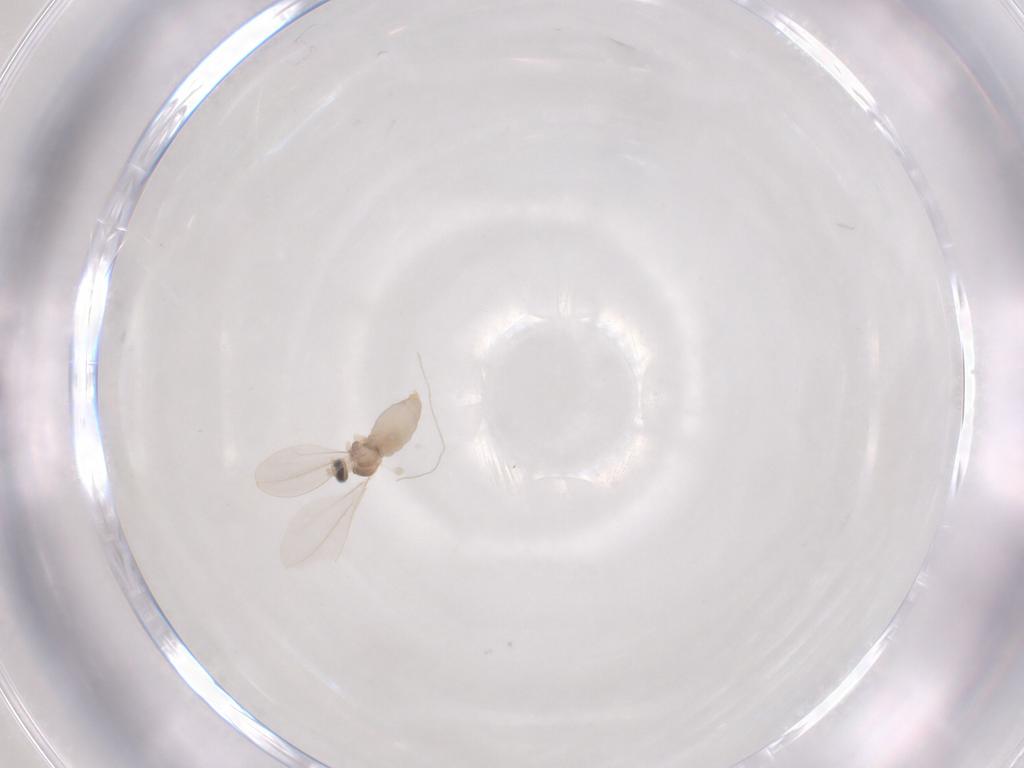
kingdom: Animalia
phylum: Arthropoda
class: Insecta
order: Diptera
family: Cecidomyiidae
